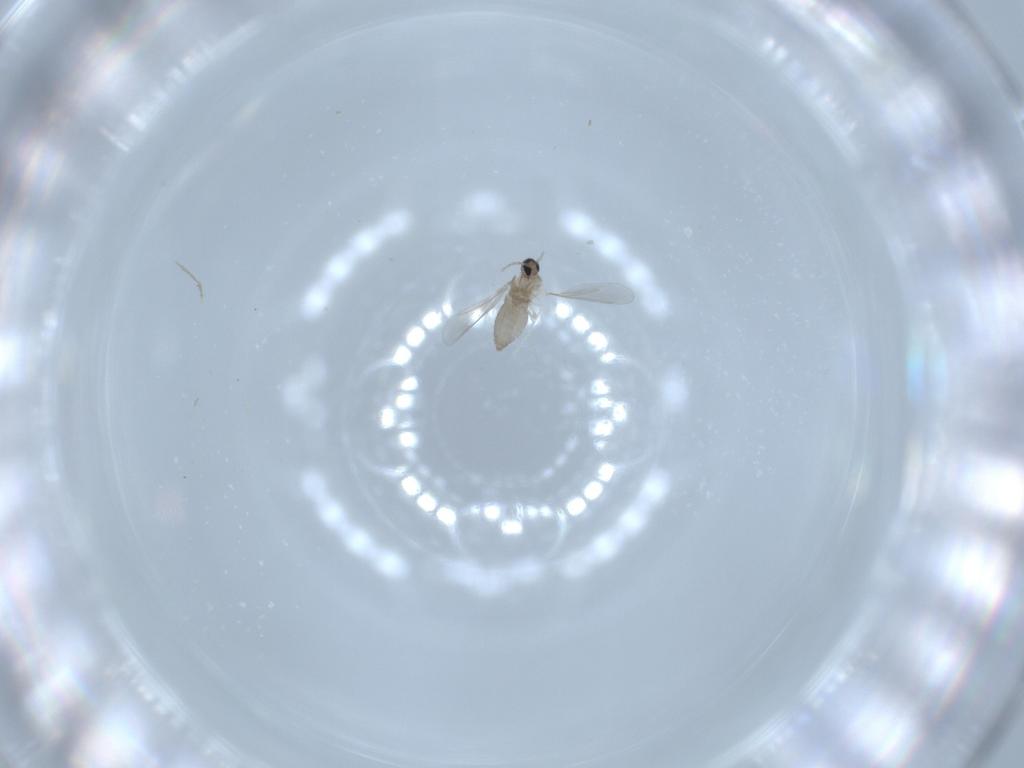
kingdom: Animalia
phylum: Arthropoda
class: Insecta
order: Diptera
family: Cecidomyiidae
